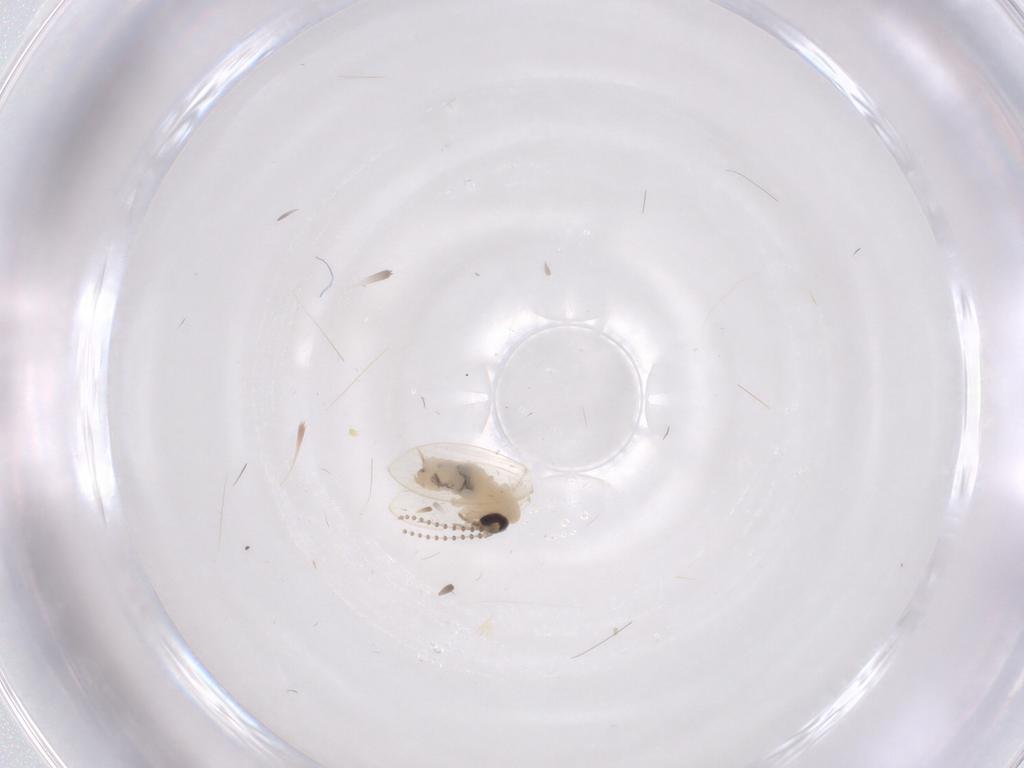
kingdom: Animalia
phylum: Arthropoda
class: Insecta
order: Diptera
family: Psychodidae
